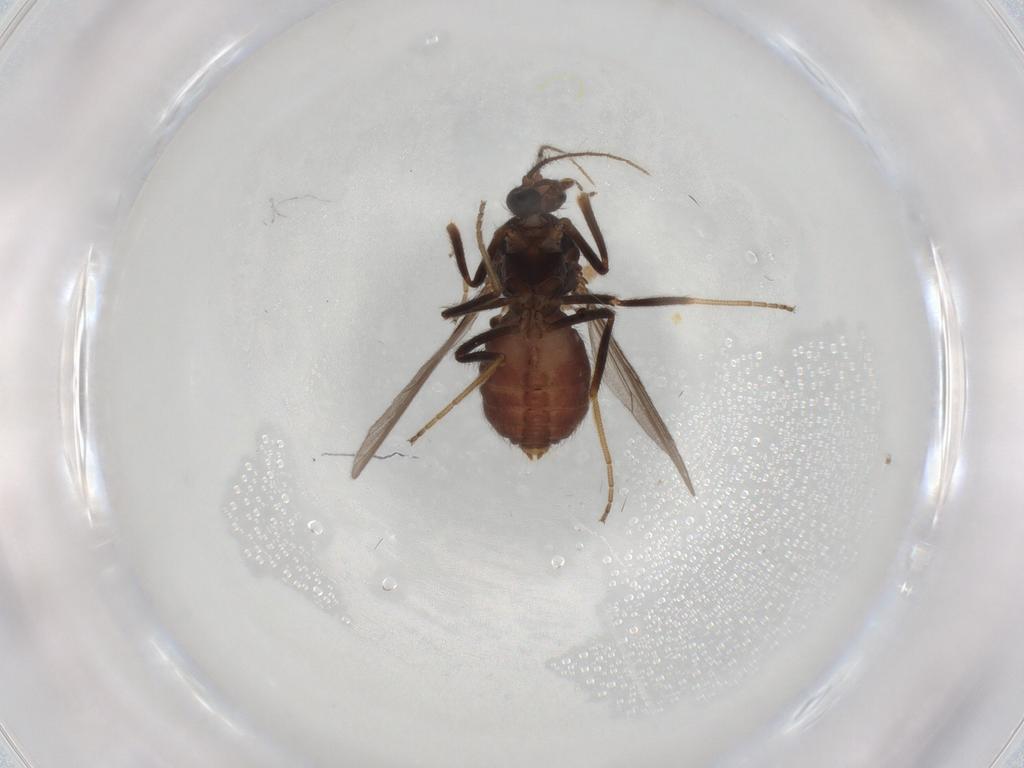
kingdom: Animalia
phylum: Arthropoda
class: Insecta
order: Diptera
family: Ceratopogonidae
